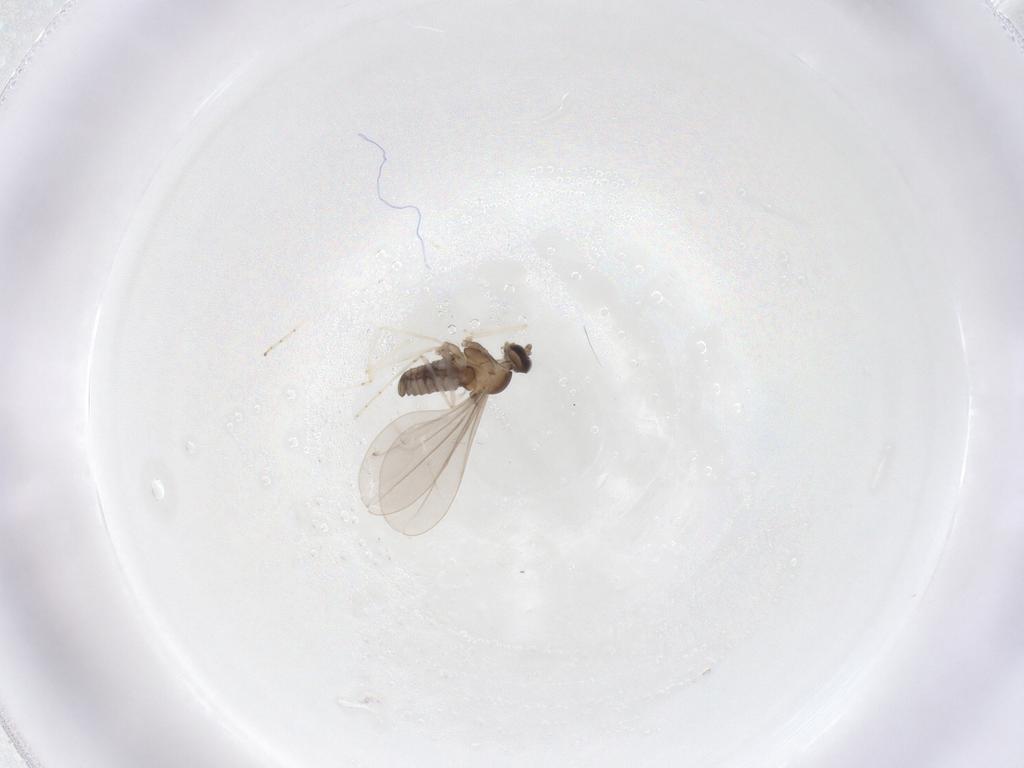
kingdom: Animalia
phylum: Arthropoda
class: Insecta
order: Diptera
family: Cecidomyiidae
